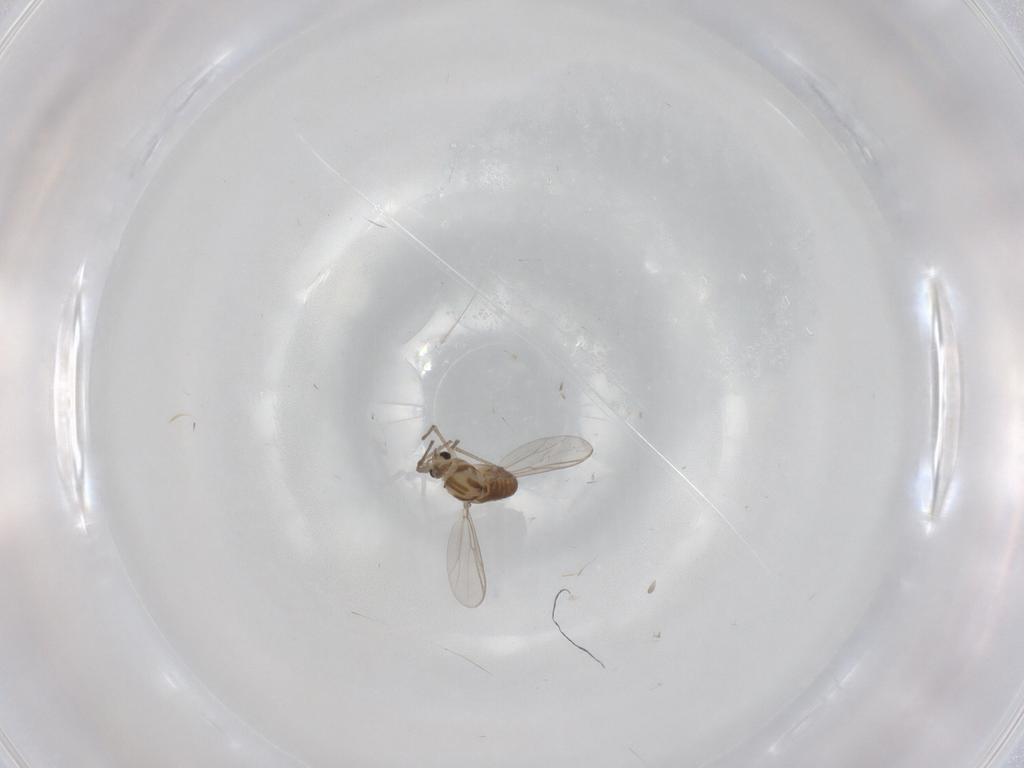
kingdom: Animalia
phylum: Arthropoda
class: Insecta
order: Diptera
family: Chironomidae
